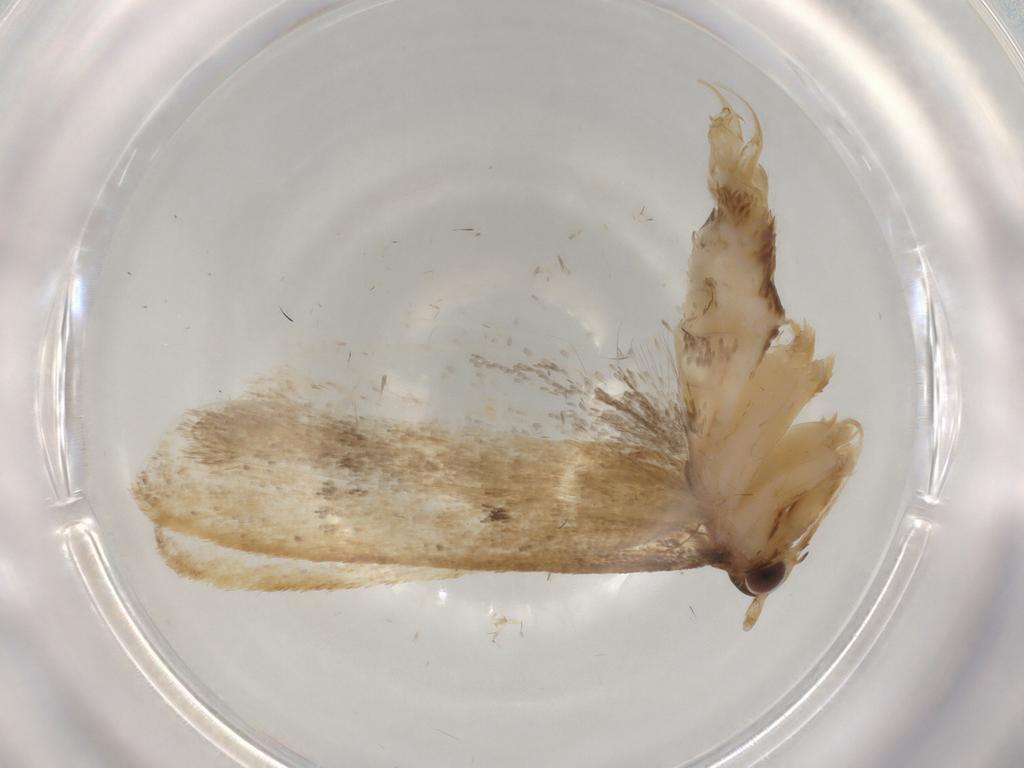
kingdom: Animalia
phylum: Arthropoda
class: Insecta
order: Lepidoptera
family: Lecithoceridae
